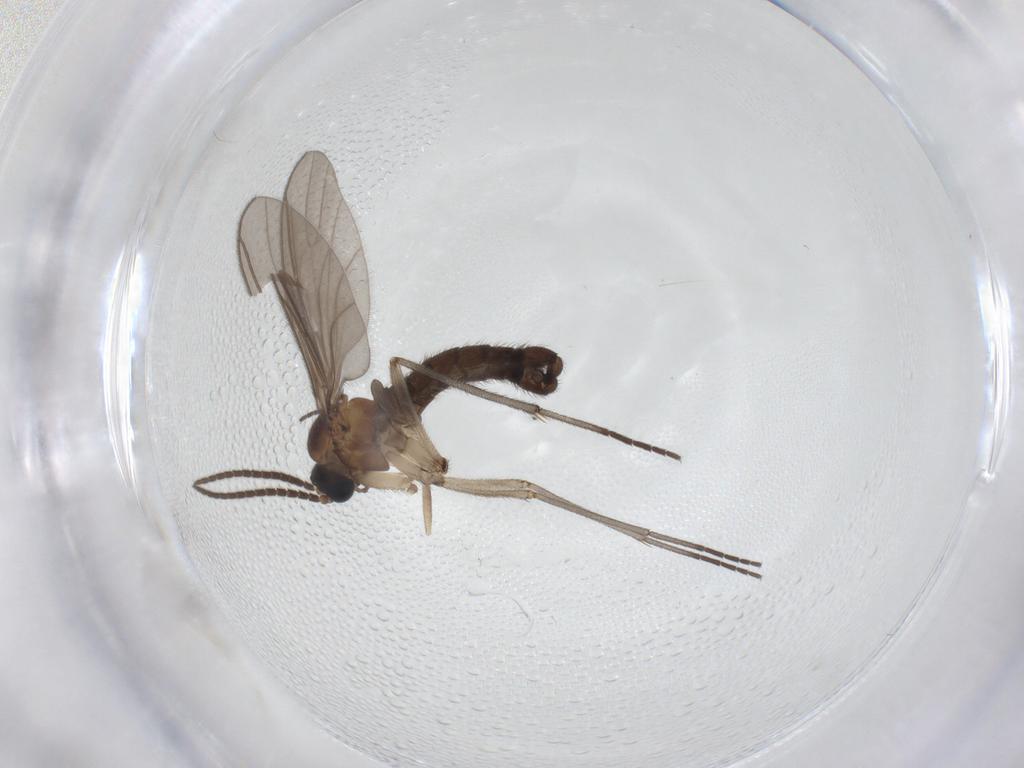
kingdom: Animalia
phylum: Arthropoda
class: Insecta
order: Diptera
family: Sciaridae
